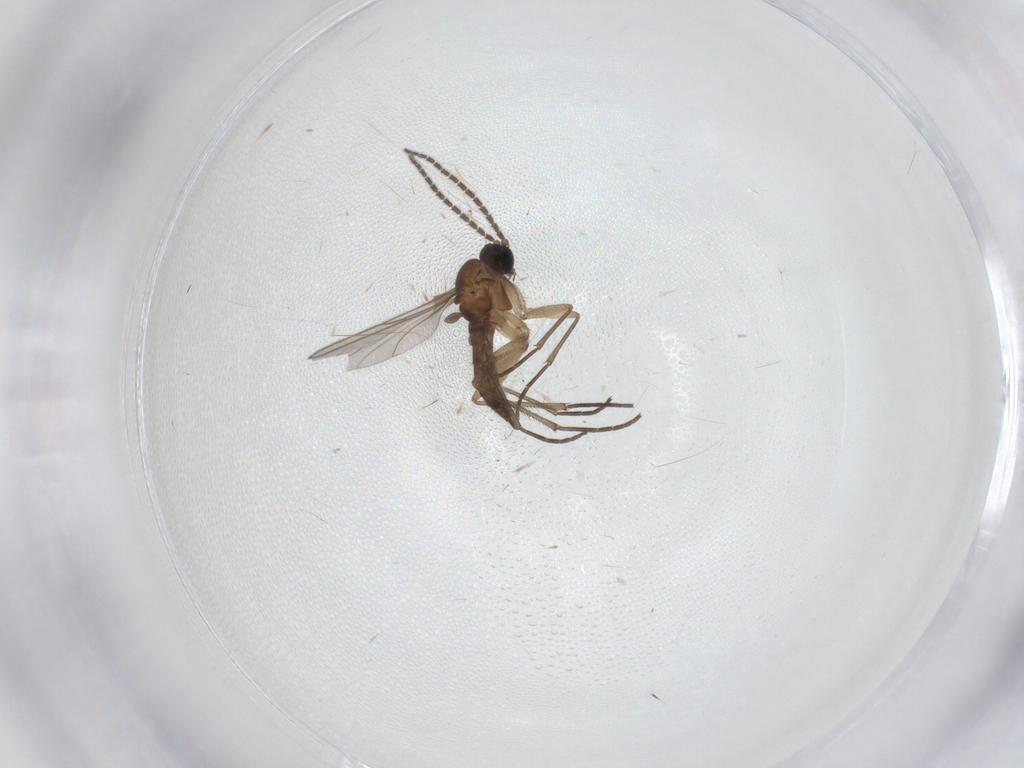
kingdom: Animalia
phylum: Arthropoda
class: Insecta
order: Diptera
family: Sciaridae
